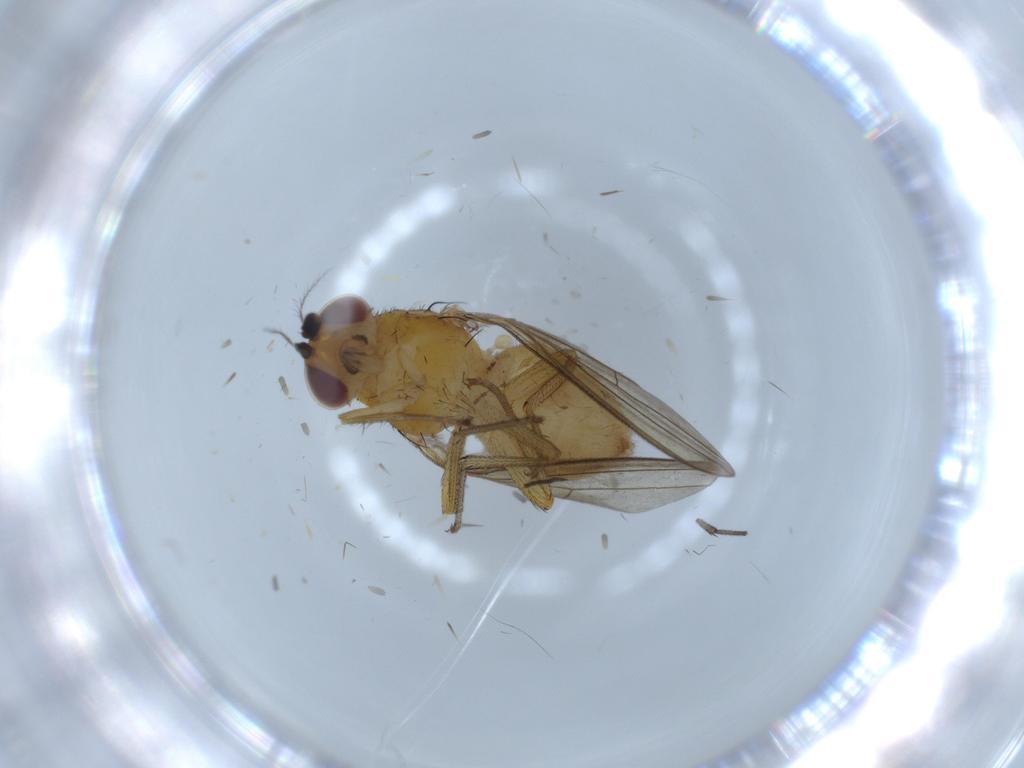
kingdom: Animalia
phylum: Arthropoda
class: Insecta
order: Diptera
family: Lauxaniidae
